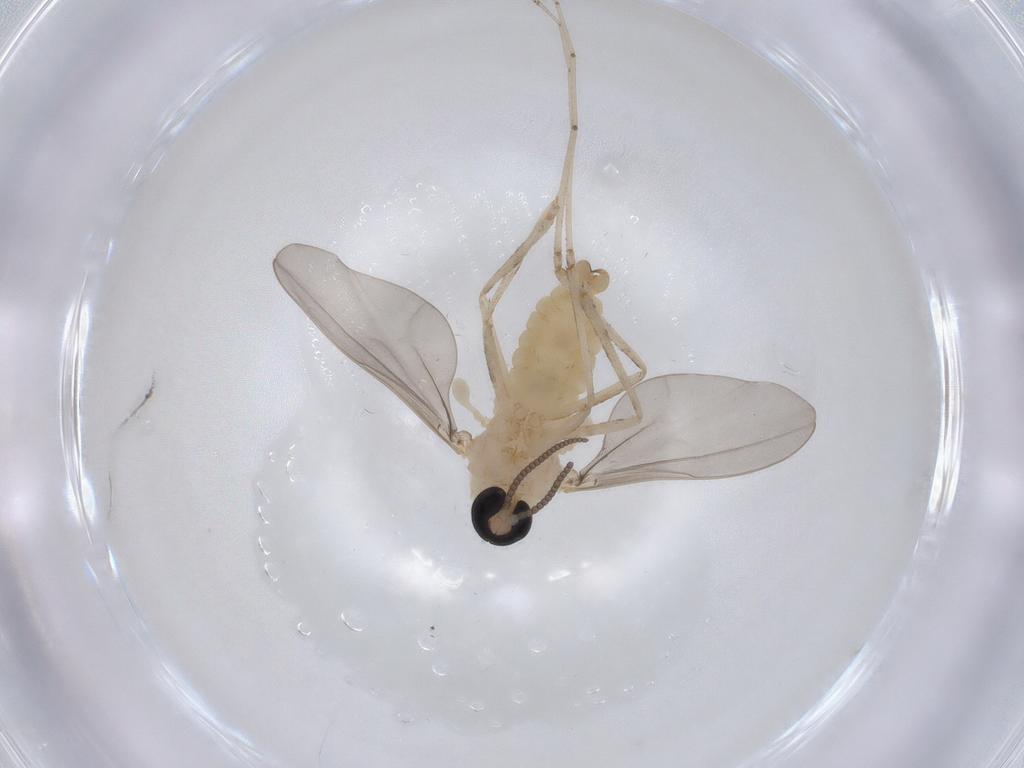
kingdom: Animalia
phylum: Arthropoda
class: Insecta
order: Diptera
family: Cecidomyiidae
